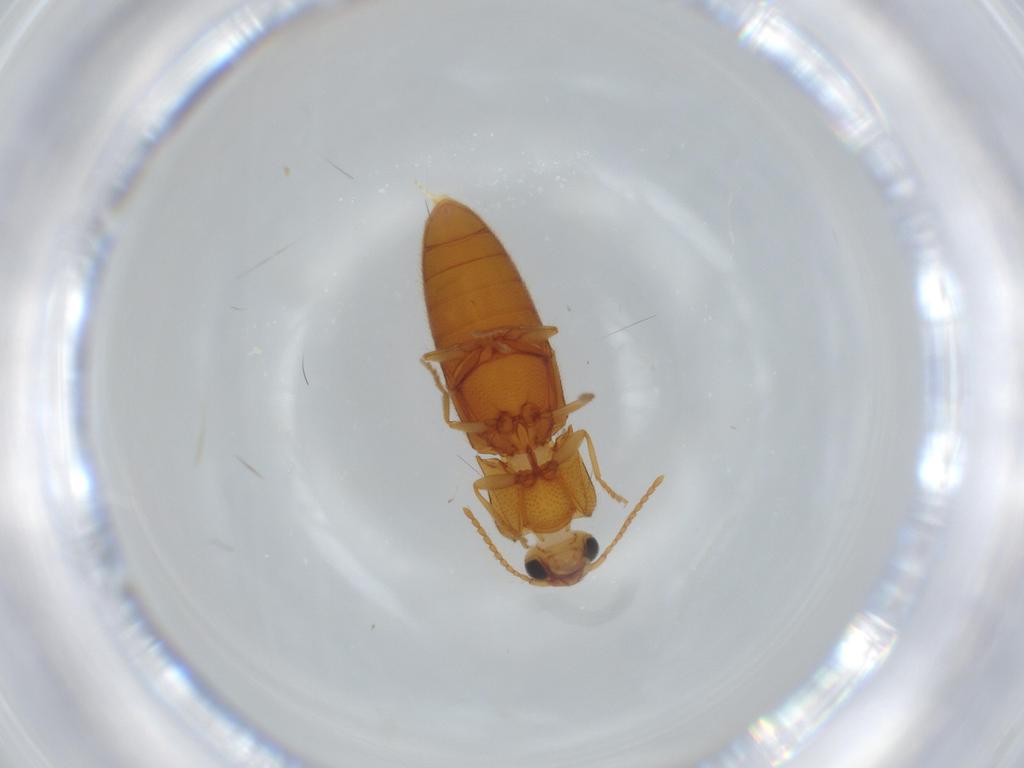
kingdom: Animalia
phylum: Arthropoda
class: Insecta
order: Coleoptera
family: Elateridae
